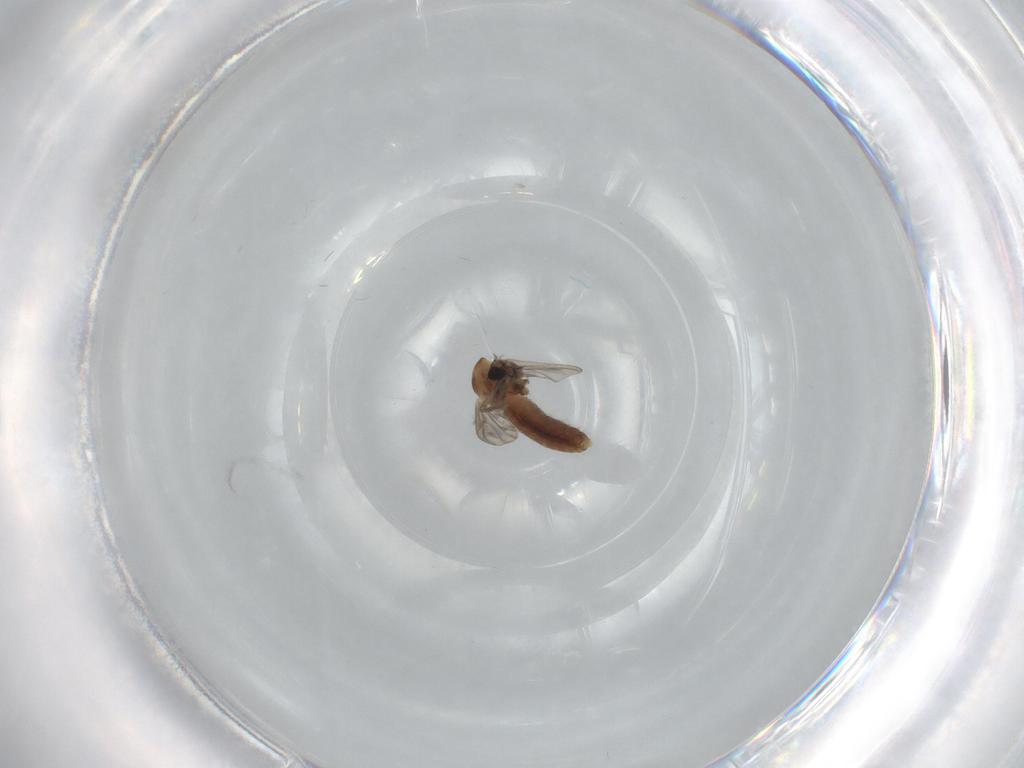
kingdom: Animalia
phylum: Arthropoda
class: Insecta
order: Diptera
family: Chironomidae
